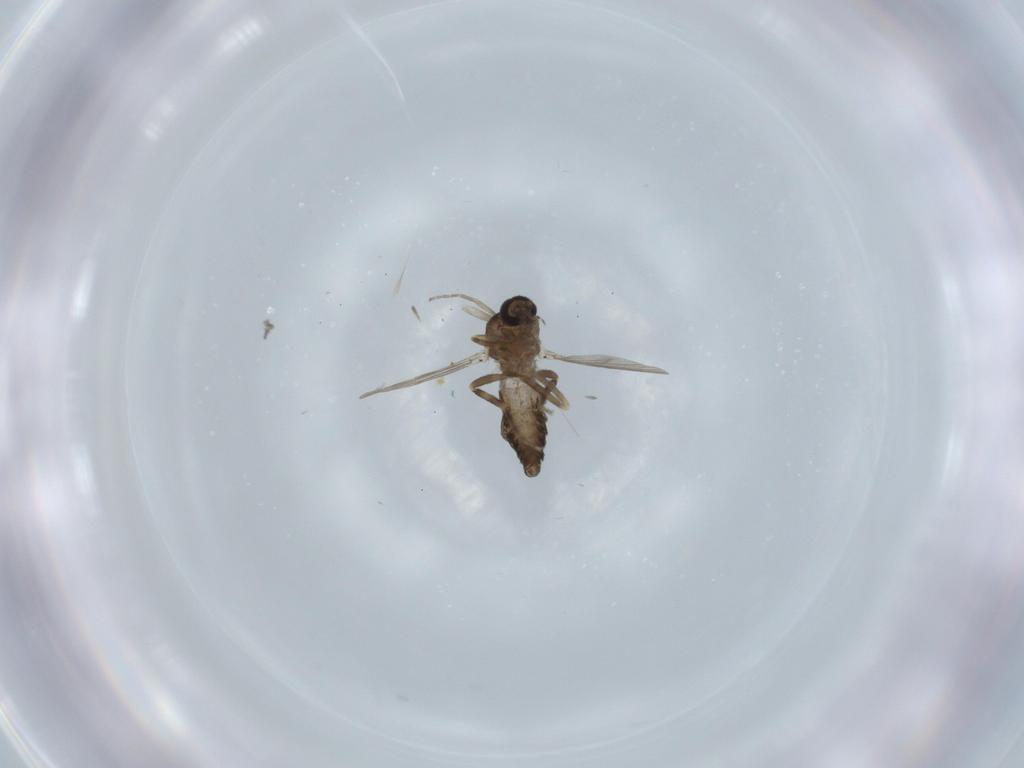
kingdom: Animalia
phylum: Arthropoda
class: Insecta
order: Diptera
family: Ceratopogonidae
